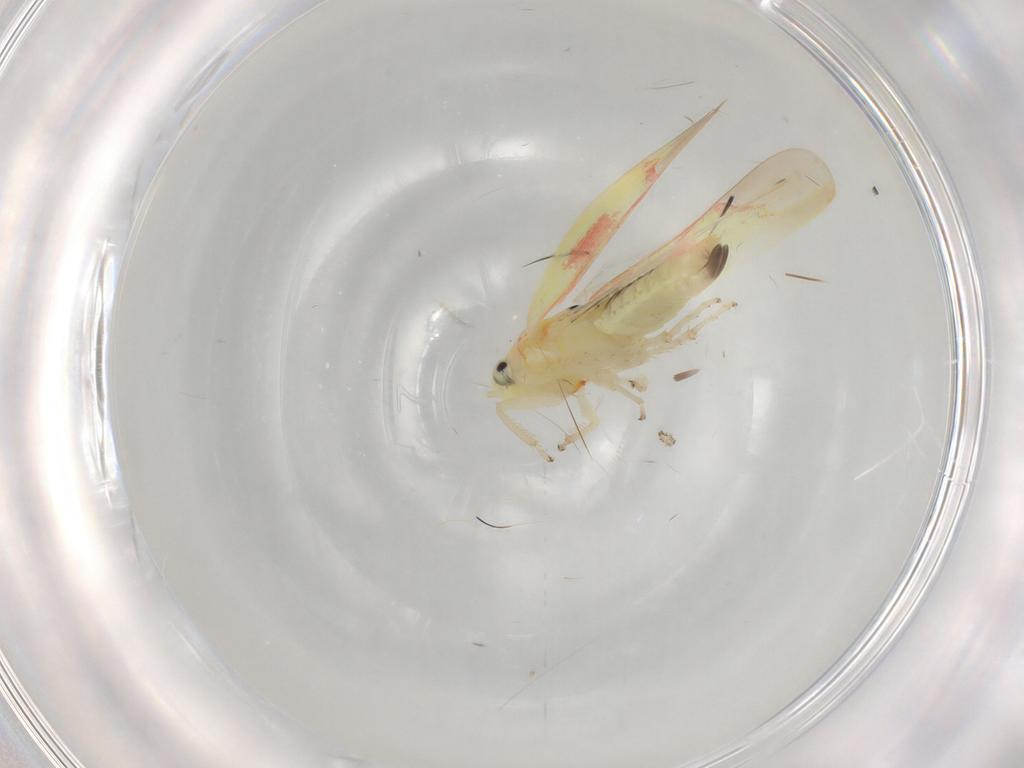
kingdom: Animalia
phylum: Arthropoda
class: Insecta
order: Hemiptera
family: Cicadellidae
